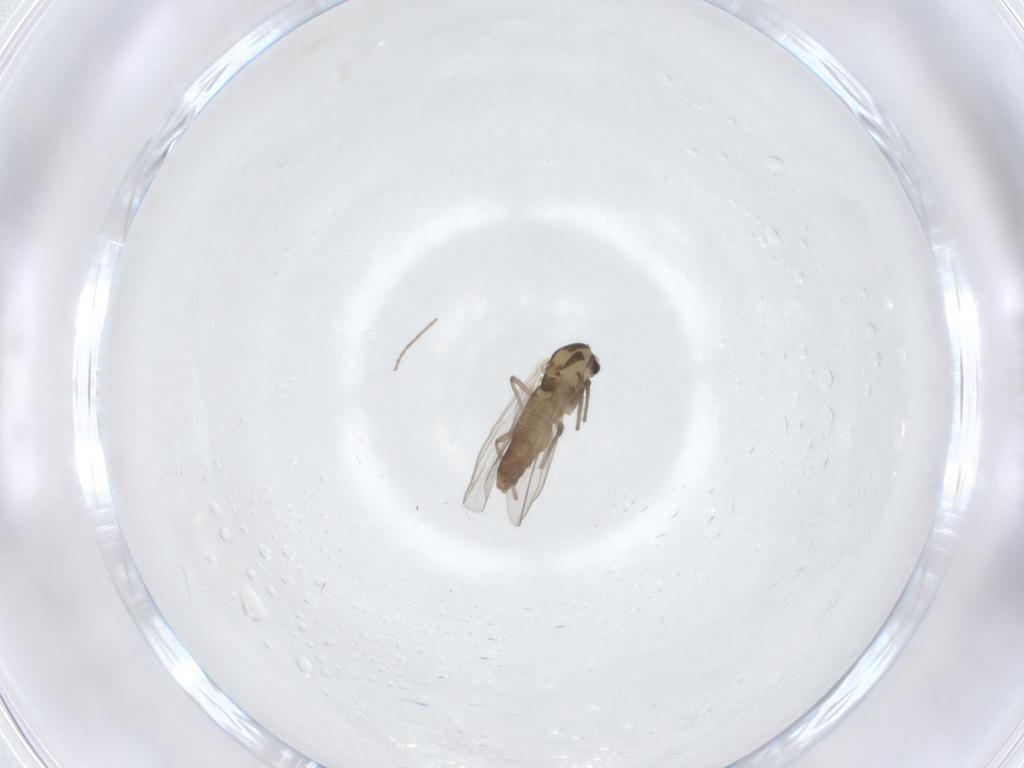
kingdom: Animalia
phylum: Arthropoda
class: Insecta
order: Diptera
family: Chironomidae
